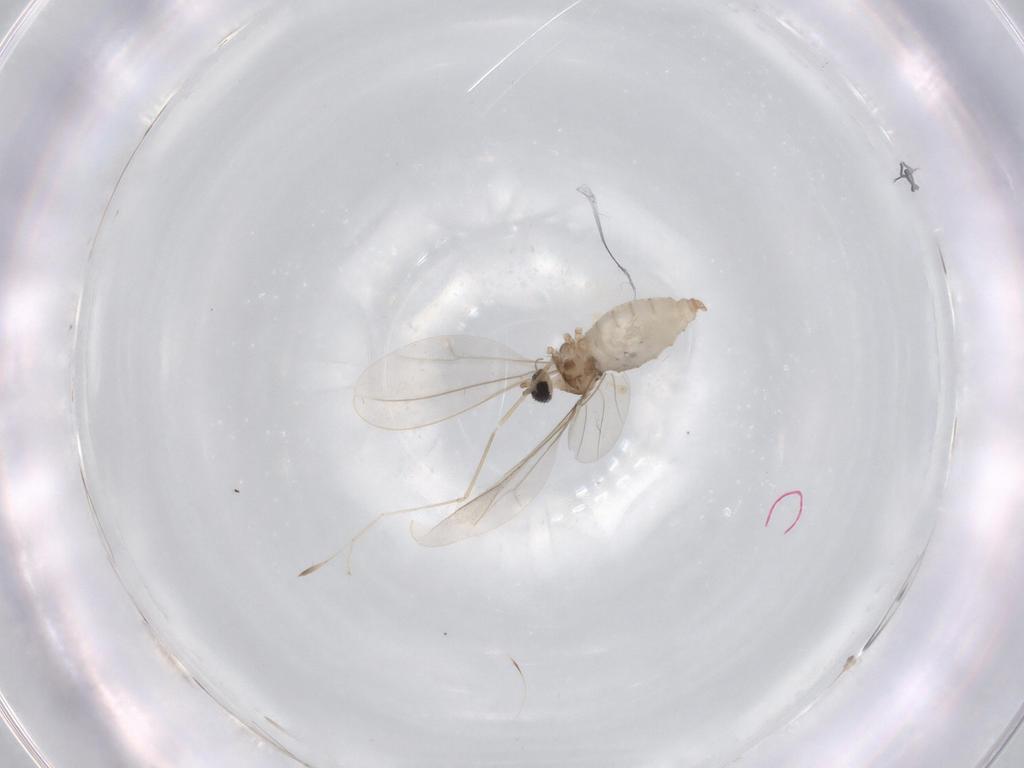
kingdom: Animalia
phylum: Arthropoda
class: Insecta
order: Diptera
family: Cecidomyiidae
